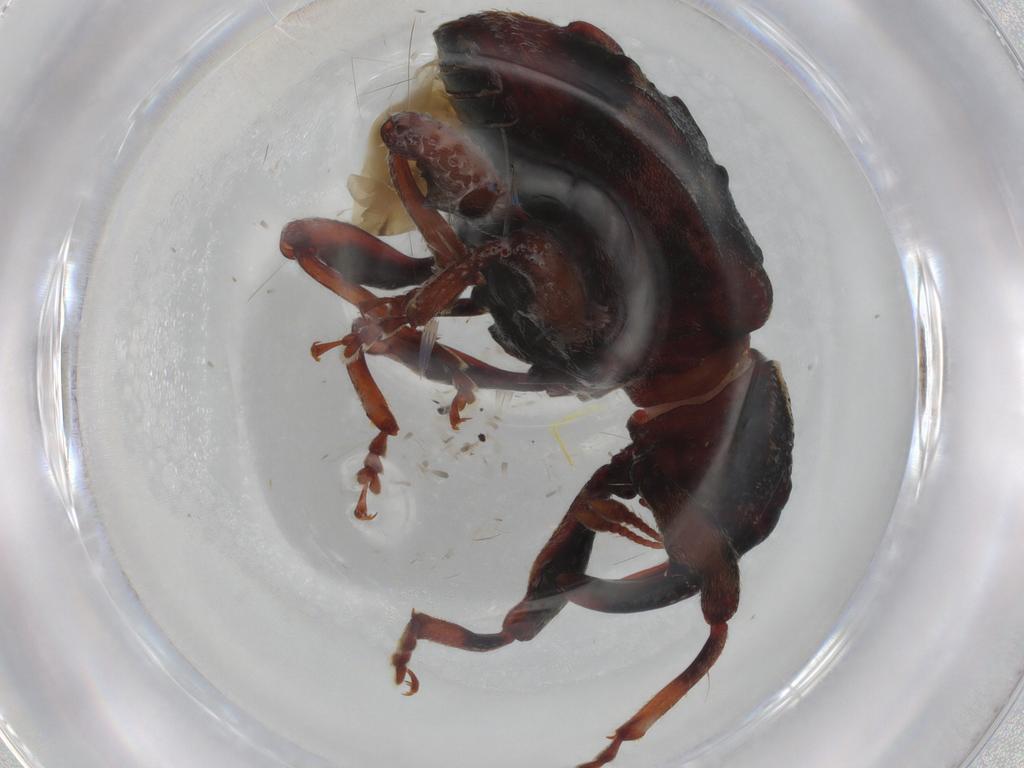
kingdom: Animalia
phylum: Arthropoda
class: Insecta
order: Coleoptera
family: Curculionidae
